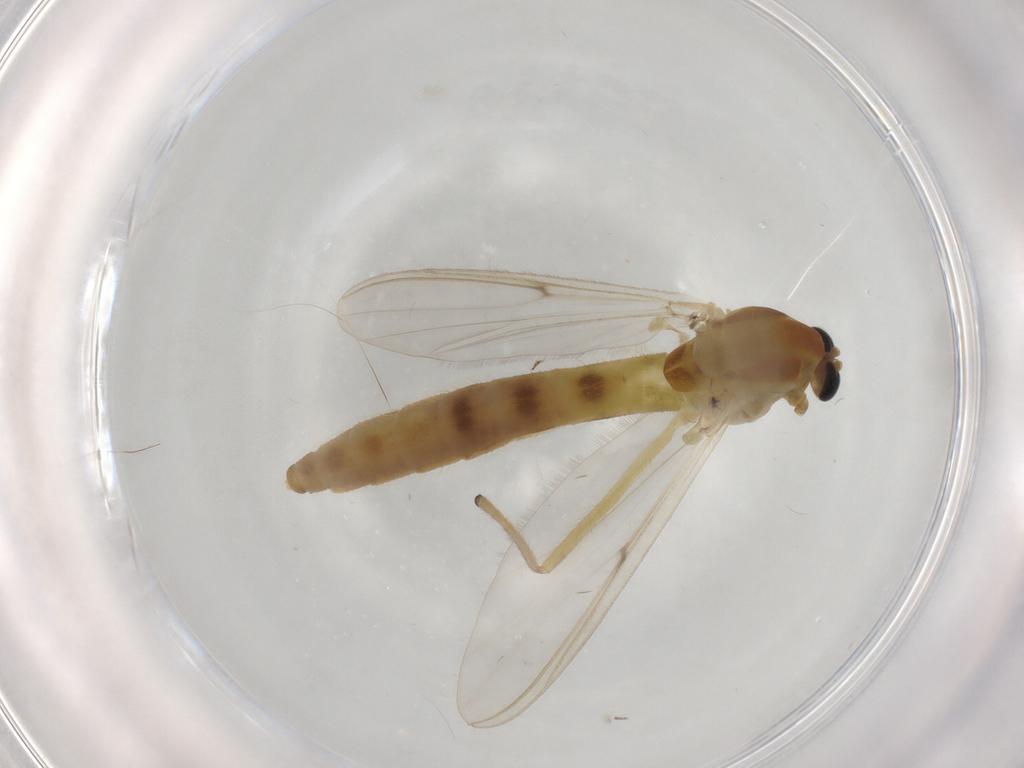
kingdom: Animalia
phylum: Arthropoda
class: Insecta
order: Diptera
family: Chironomidae
